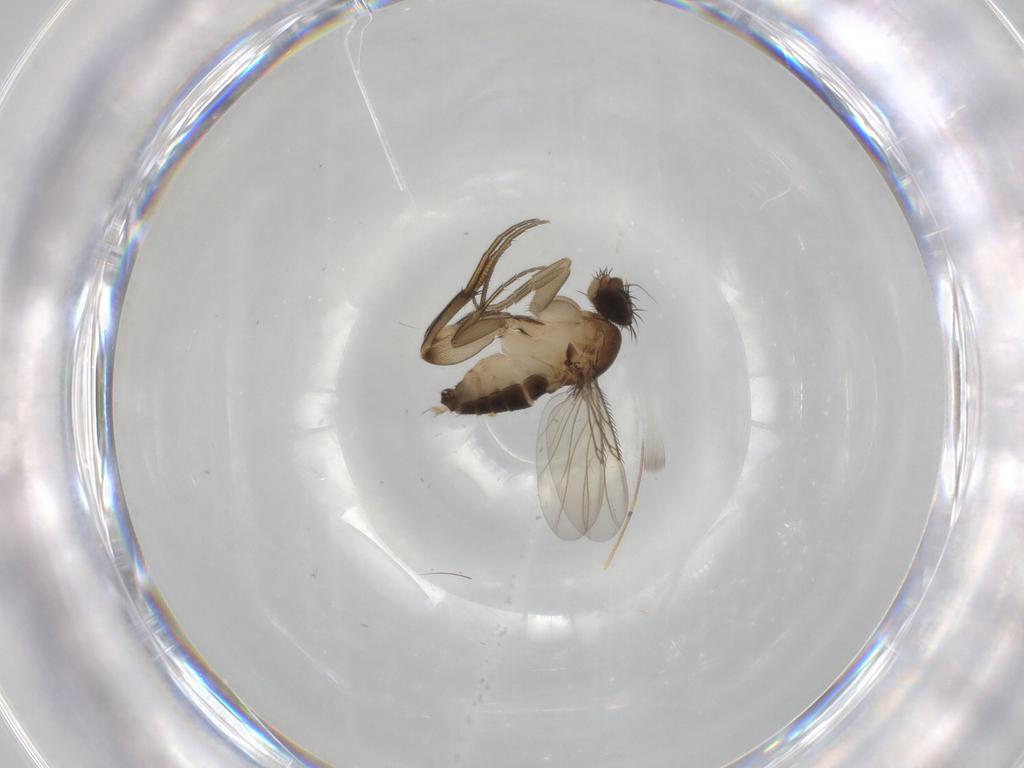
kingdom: Animalia
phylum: Arthropoda
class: Insecta
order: Diptera
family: Phoridae
